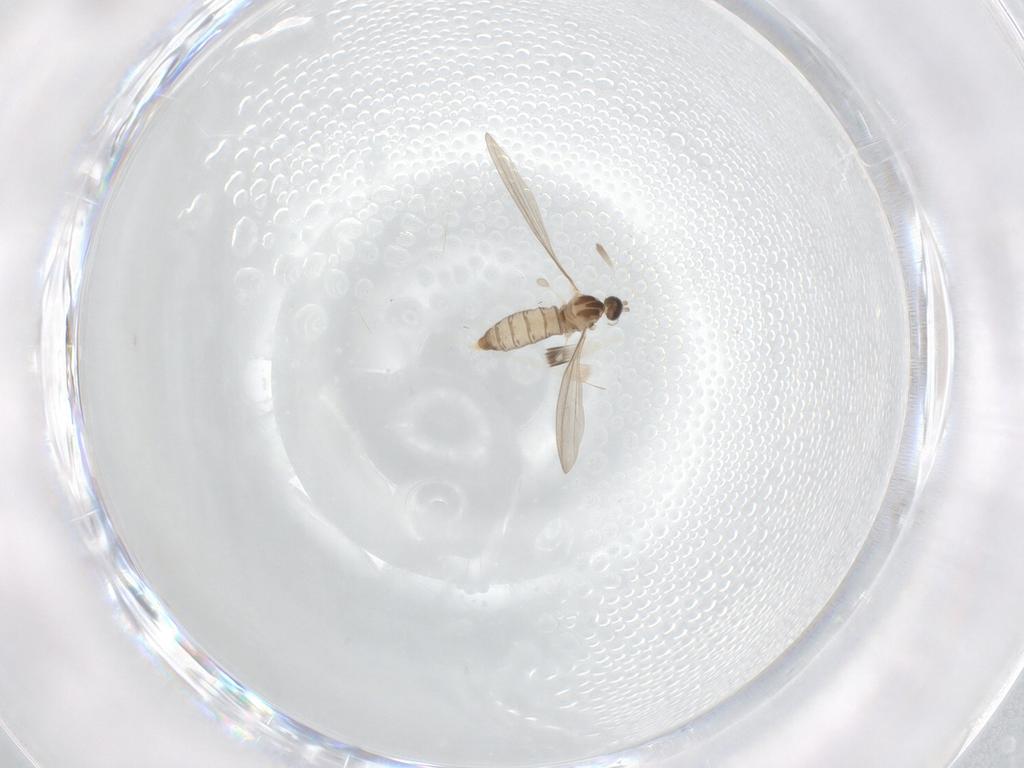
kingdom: Animalia
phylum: Arthropoda
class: Insecta
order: Diptera
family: Cecidomyiidae
